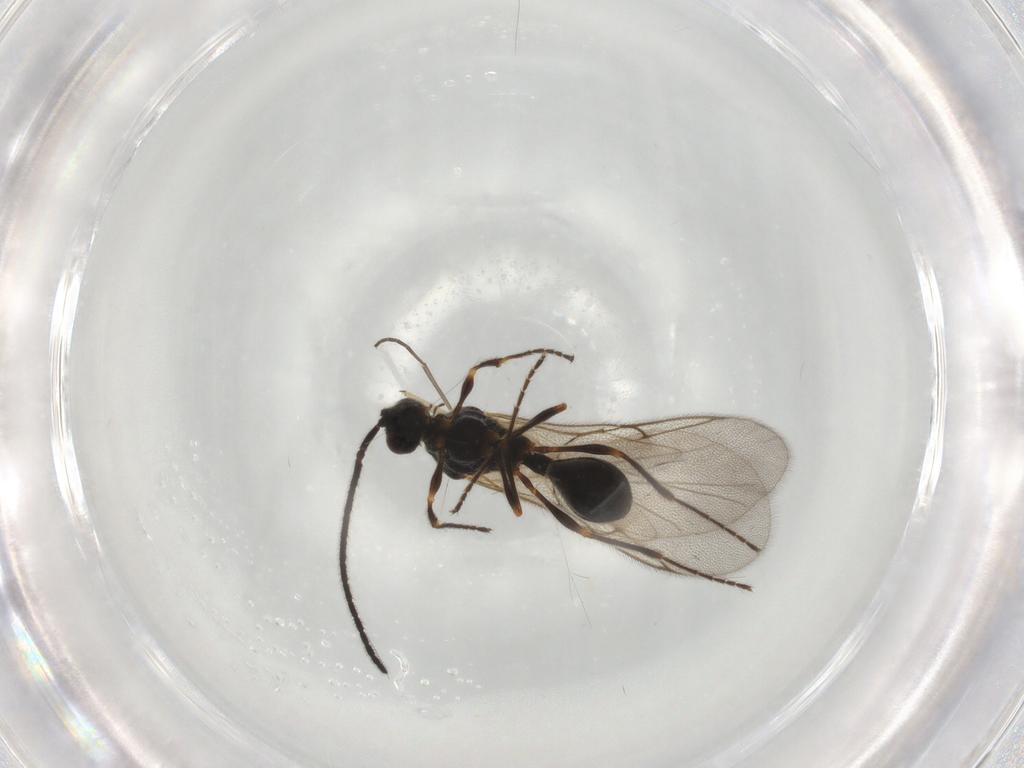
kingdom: Animalia
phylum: Arthropoda
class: Insecta
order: Hymenoptera
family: Diapriidae
